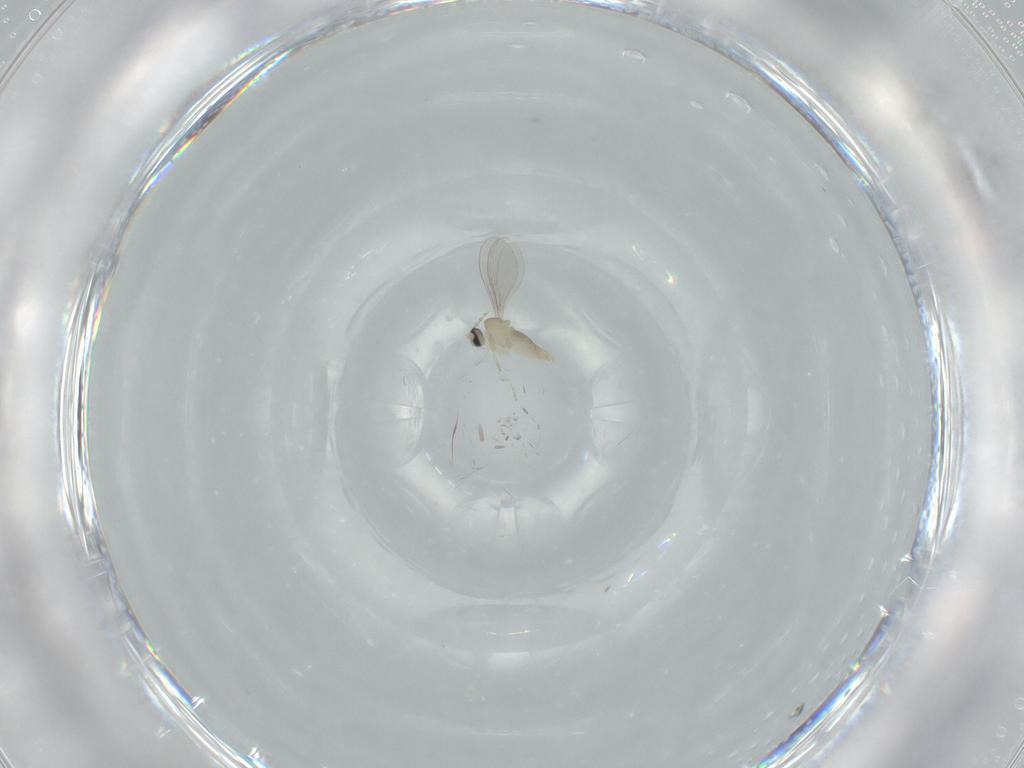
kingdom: Animalia
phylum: Arthropoda
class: Insecta
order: Diptera
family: Cecidomyiidae
